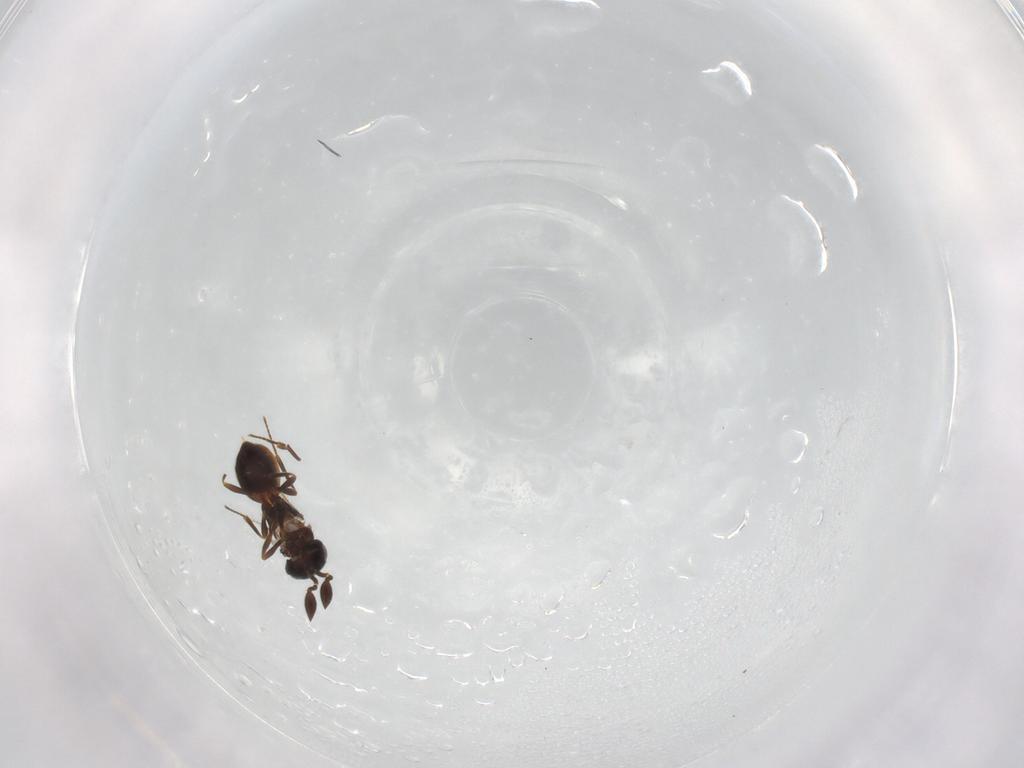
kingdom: Animalia
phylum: Arthropoda
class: Insecta
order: Hymenoptera
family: Scelionidae
